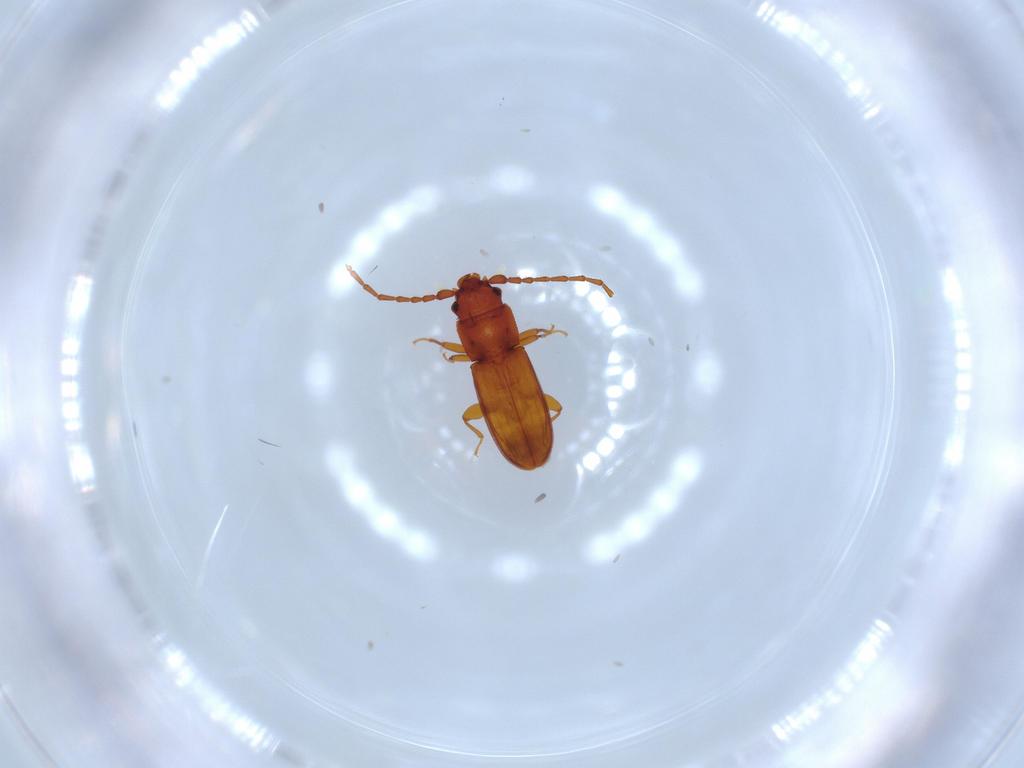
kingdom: Animalia
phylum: Arthropoda
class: Insecta
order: Coleoptera
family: Laemophloeidae
